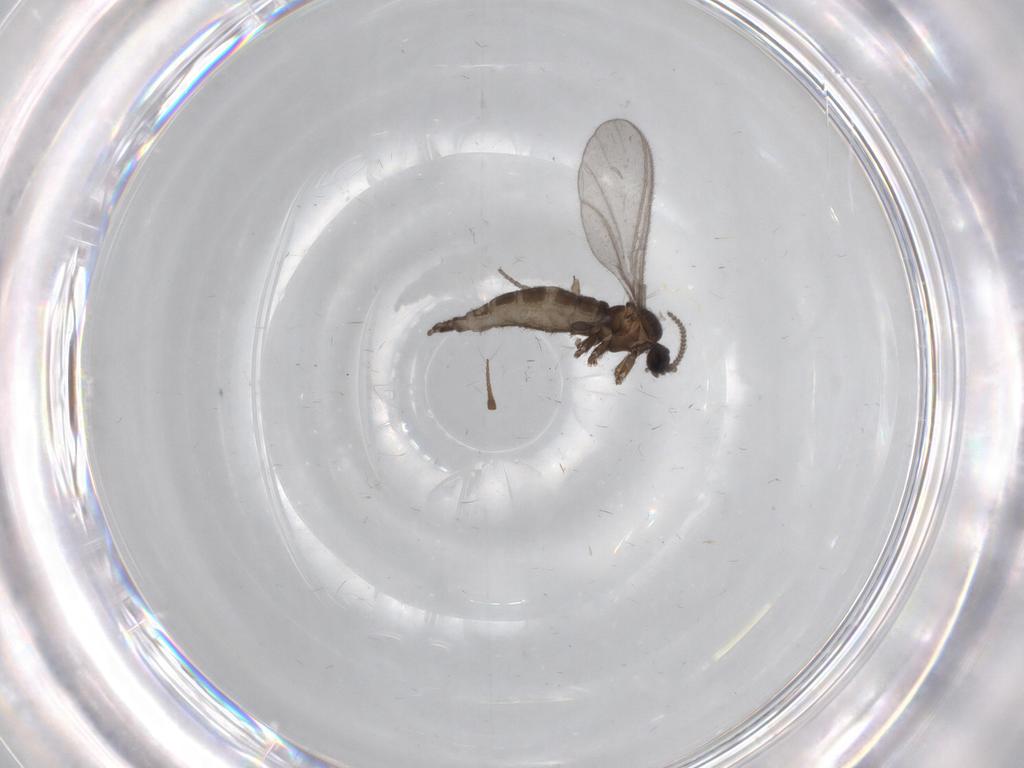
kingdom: Animalia
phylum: Arthropoda
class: Insecta
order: Diptera
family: Sciaridae
